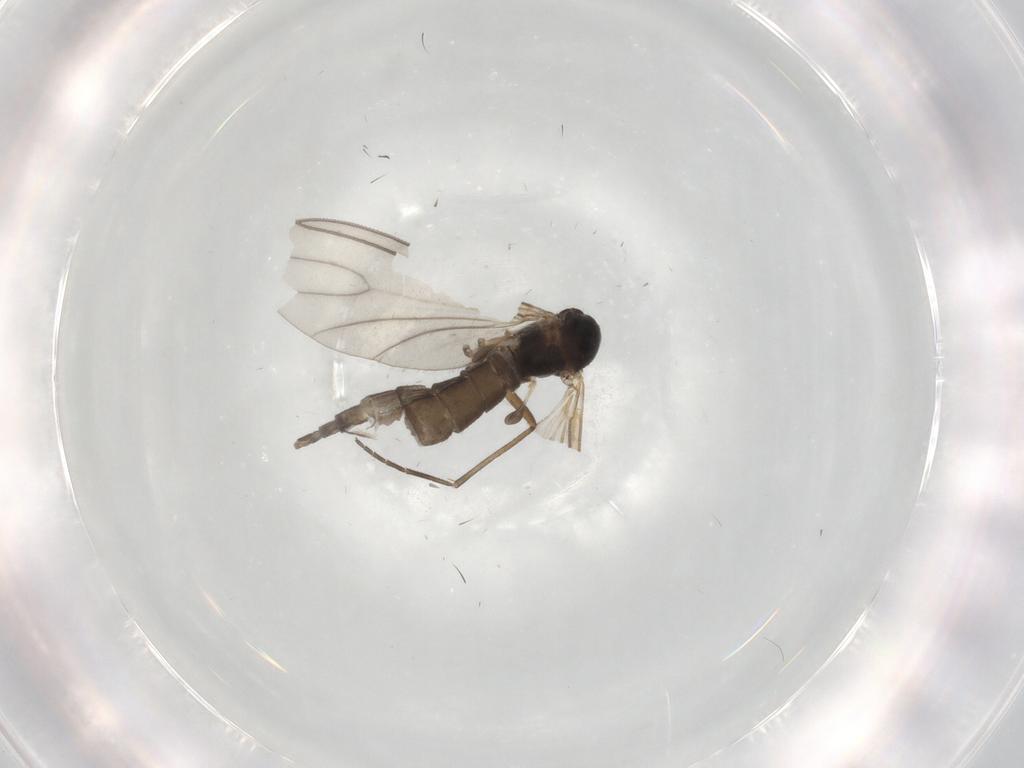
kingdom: Animalia
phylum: Arthropoda
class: Insecta
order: Diptera
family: Sciaridae
